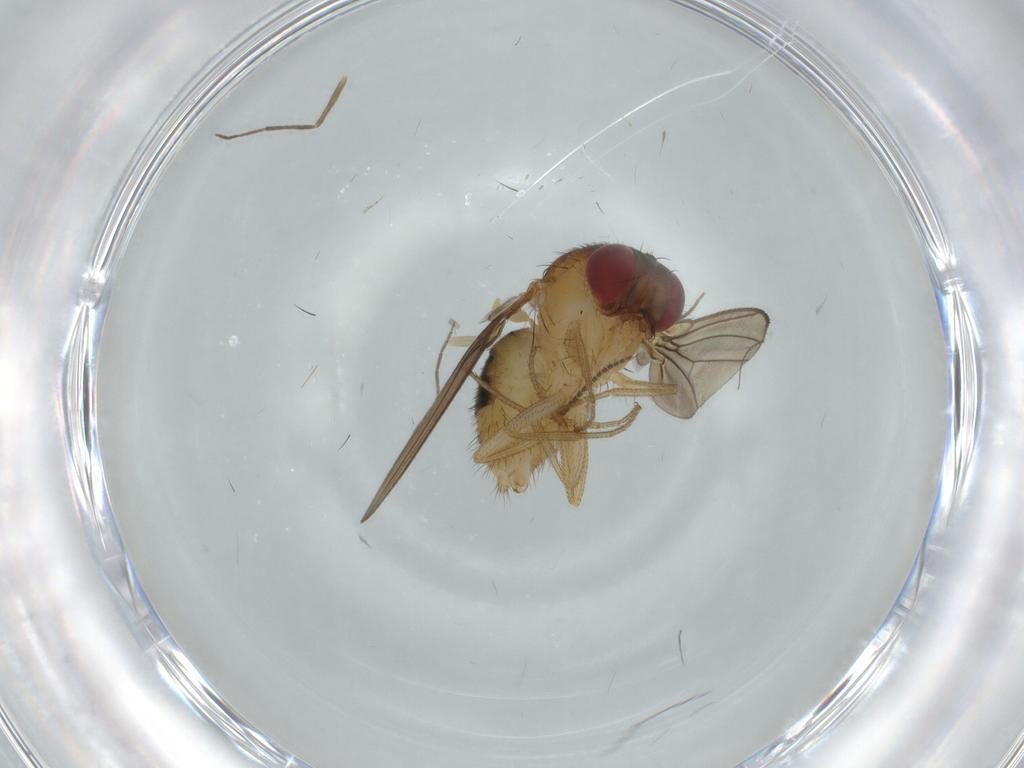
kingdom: Animalia
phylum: Arthropoda
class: Insecta
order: Diptera
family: Drosophilidae
